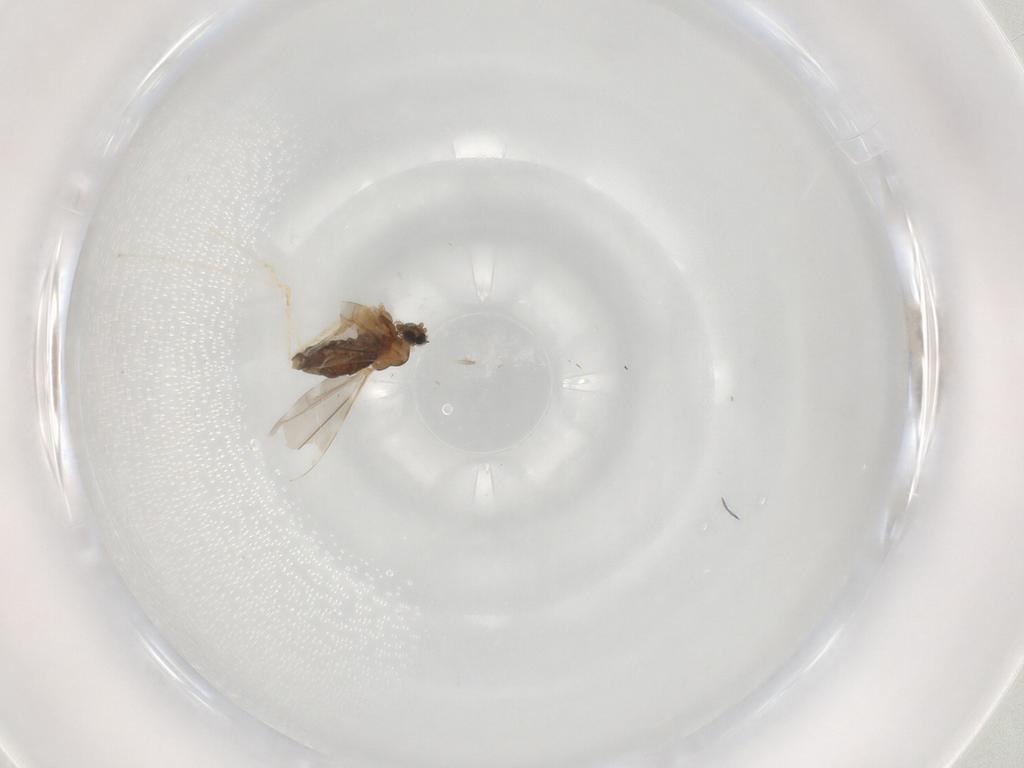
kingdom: Animalia
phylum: Arthropoda
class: Insecta
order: Diptera
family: Cecidomyiidae
